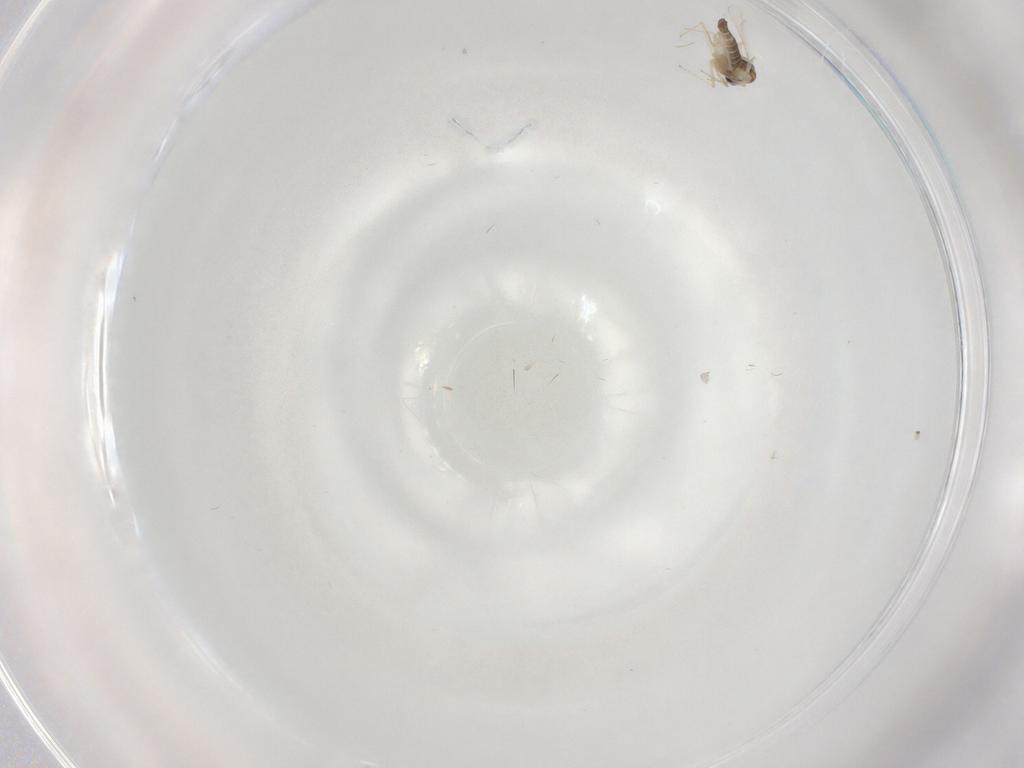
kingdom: Animalia
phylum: Arthropoda
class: Insecta
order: Diptera
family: Chironomidae
